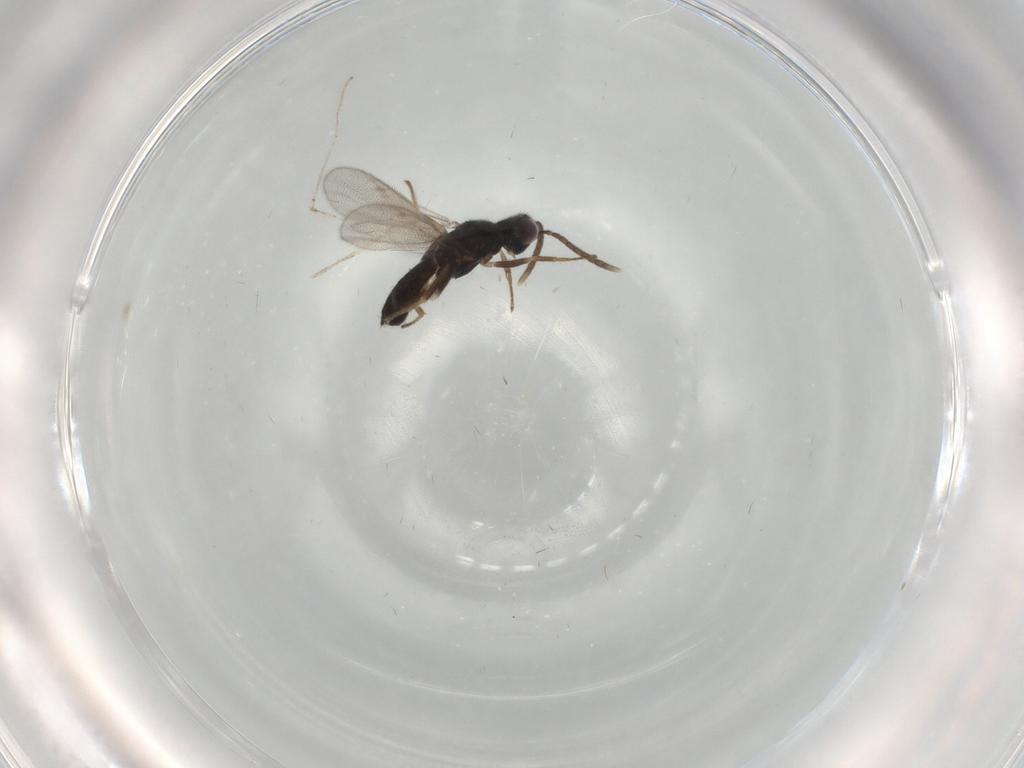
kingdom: Animalia
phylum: Arthropoda
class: Insecta
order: Hymenoptera
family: Eupelmidae
